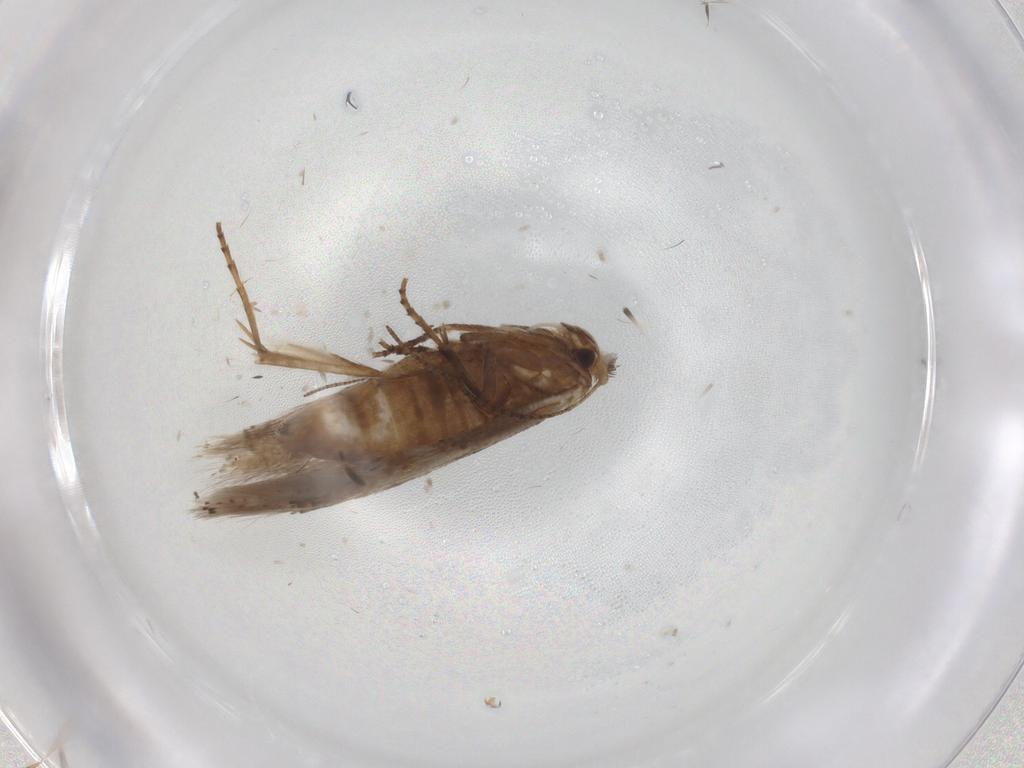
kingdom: Animalia
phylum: Arthropoda
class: Insecta
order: Lepidoptera
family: Bucculatricidae
